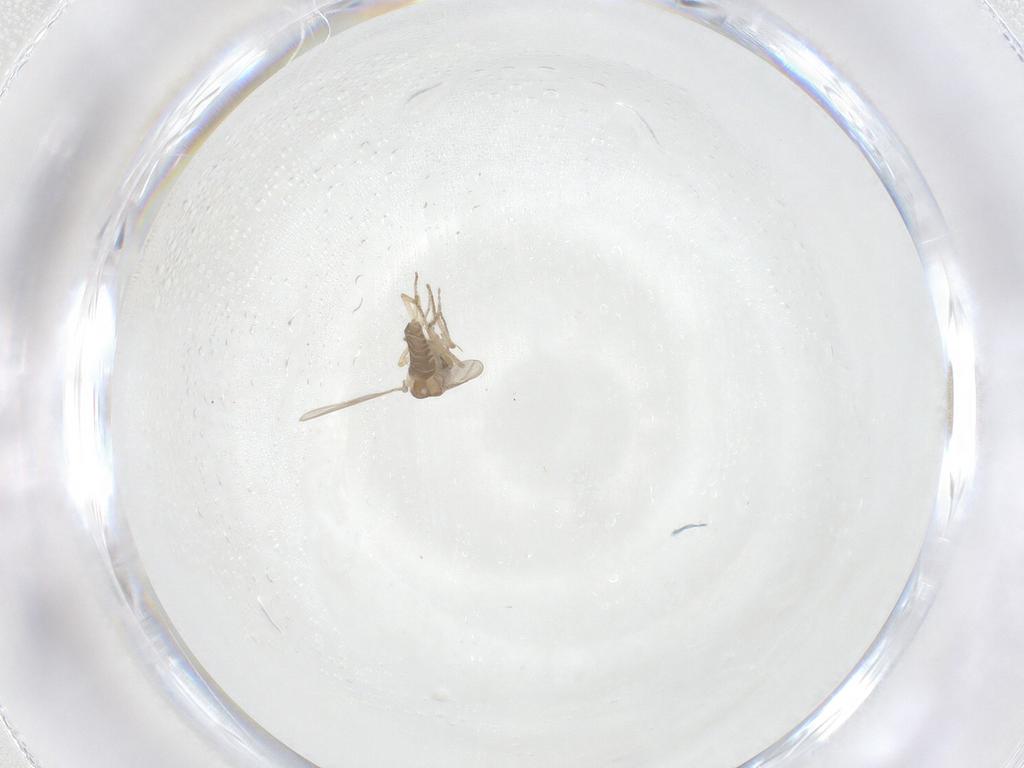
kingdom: Animalia
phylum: Arthropoda
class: Insecta
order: Diptera
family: Ceratopogonidae
